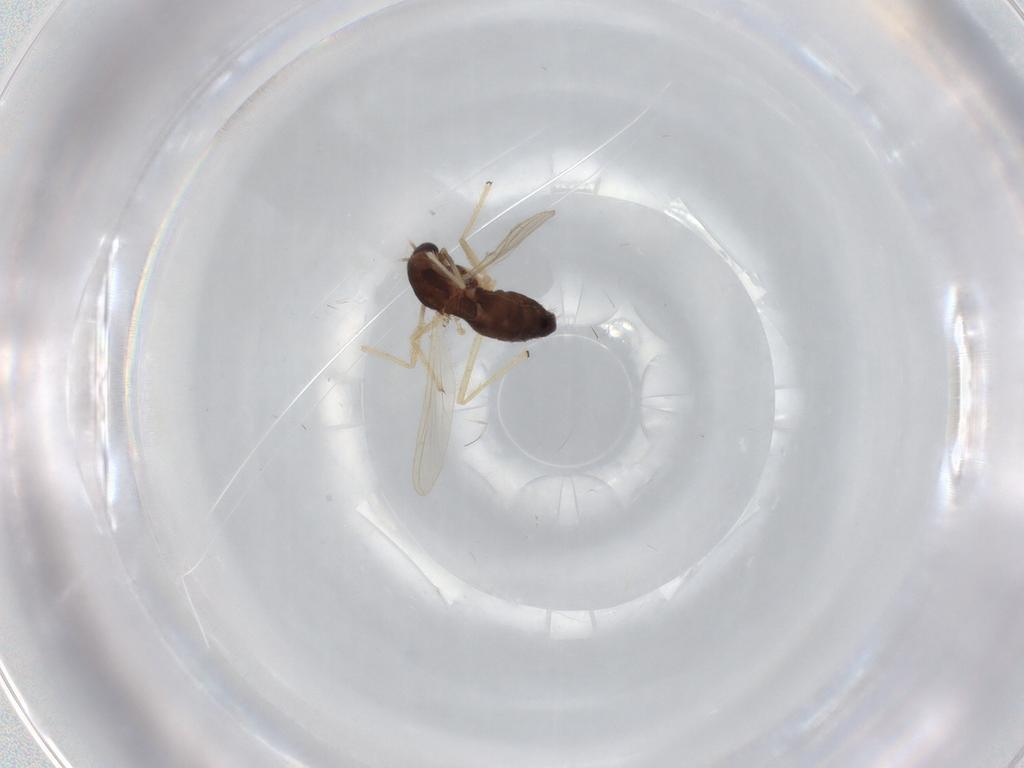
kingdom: Animalia
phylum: Arthropoda
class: Insecta
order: Diptera
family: Chironomidae
